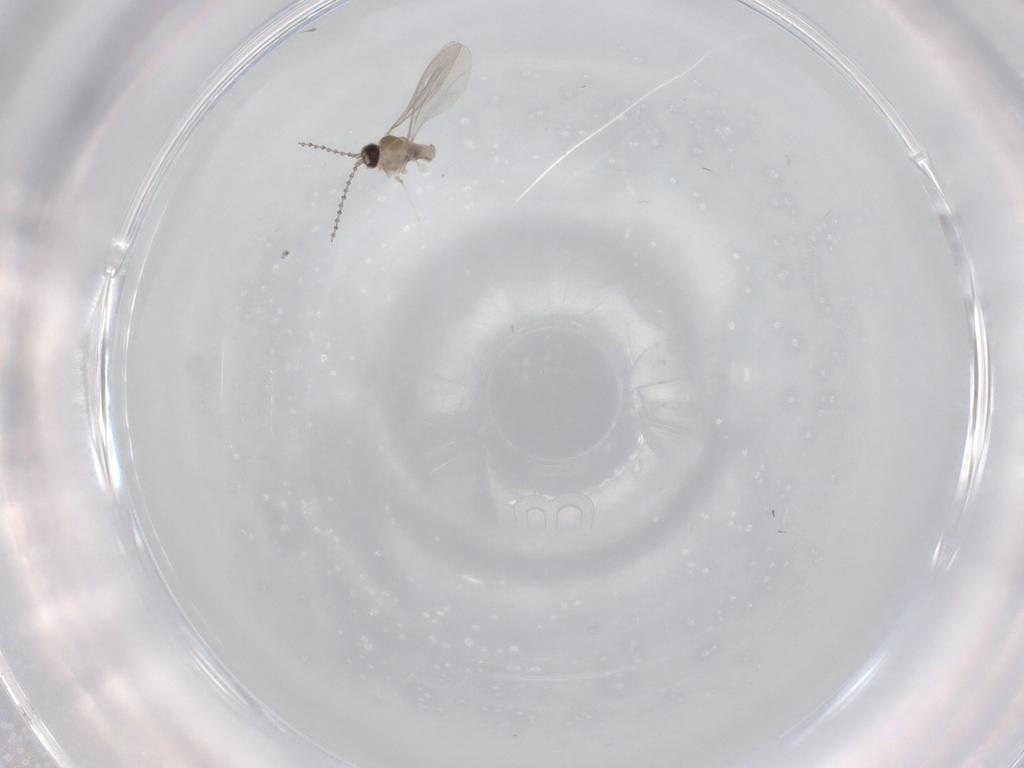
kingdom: Animalia
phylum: Arthropoda
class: Insecta
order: Diptera
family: Cecidomyiidae
